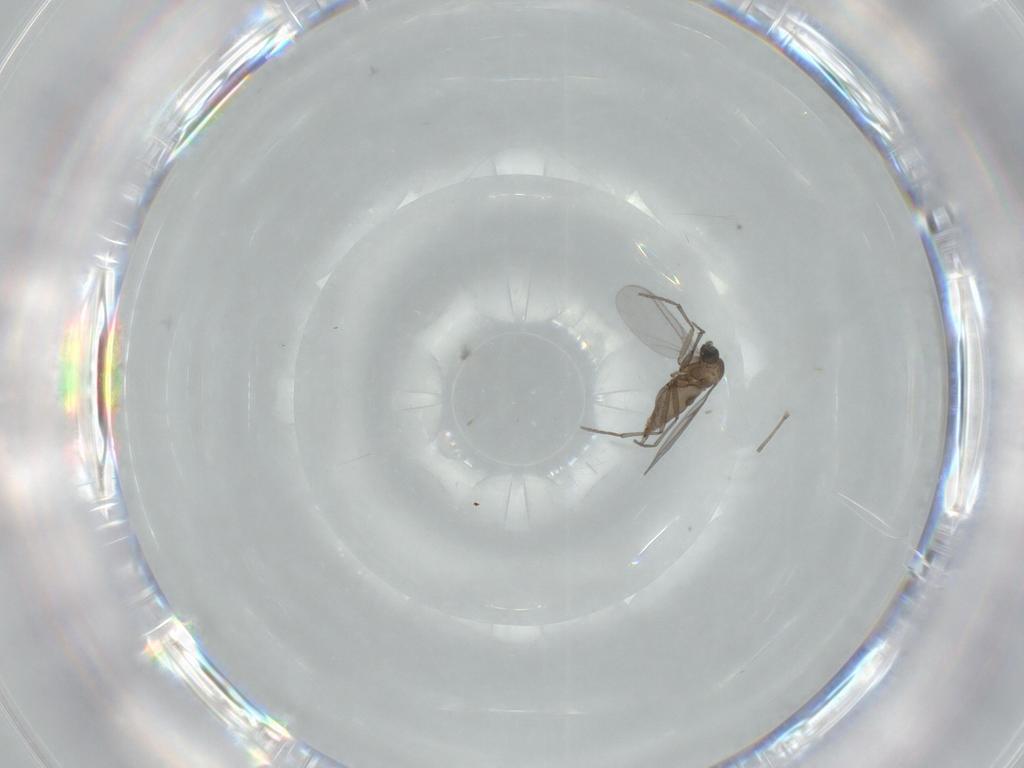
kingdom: Animalia
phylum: Arthropoda
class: Insecta
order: Diptera
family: Sciaridae
